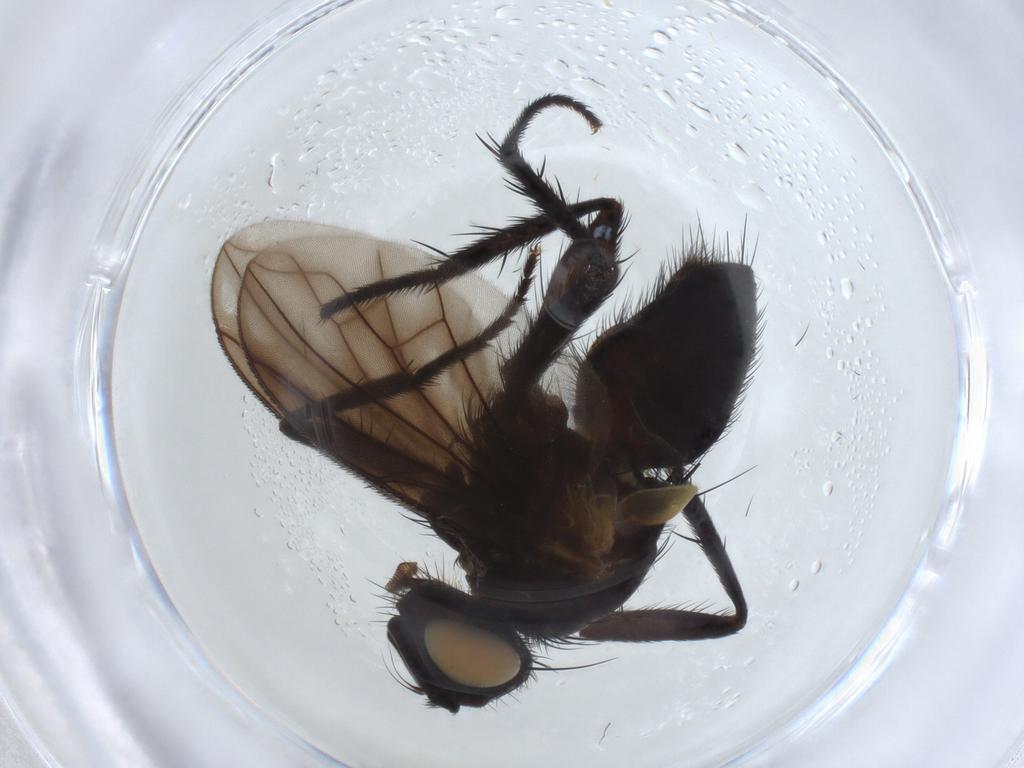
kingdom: Animalia
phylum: Arthropoda
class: Insecta
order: Diptera
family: Tachinidae
